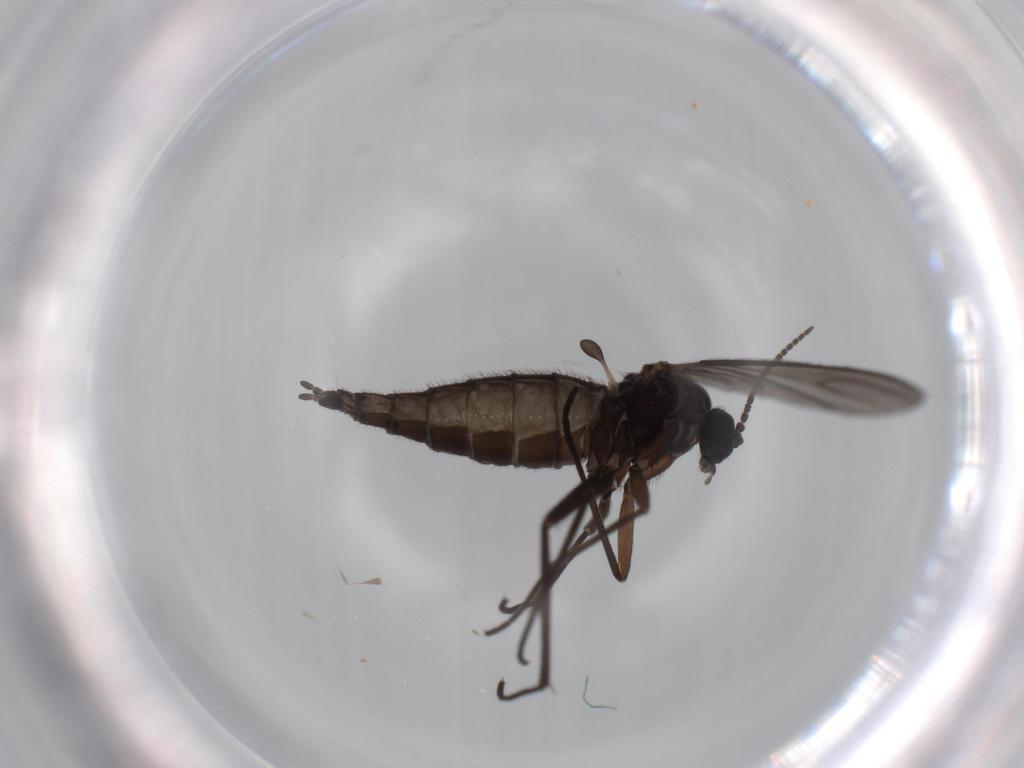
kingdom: Animalia
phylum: Arthropoda
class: Insecta
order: Diptera
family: Sciaridae
